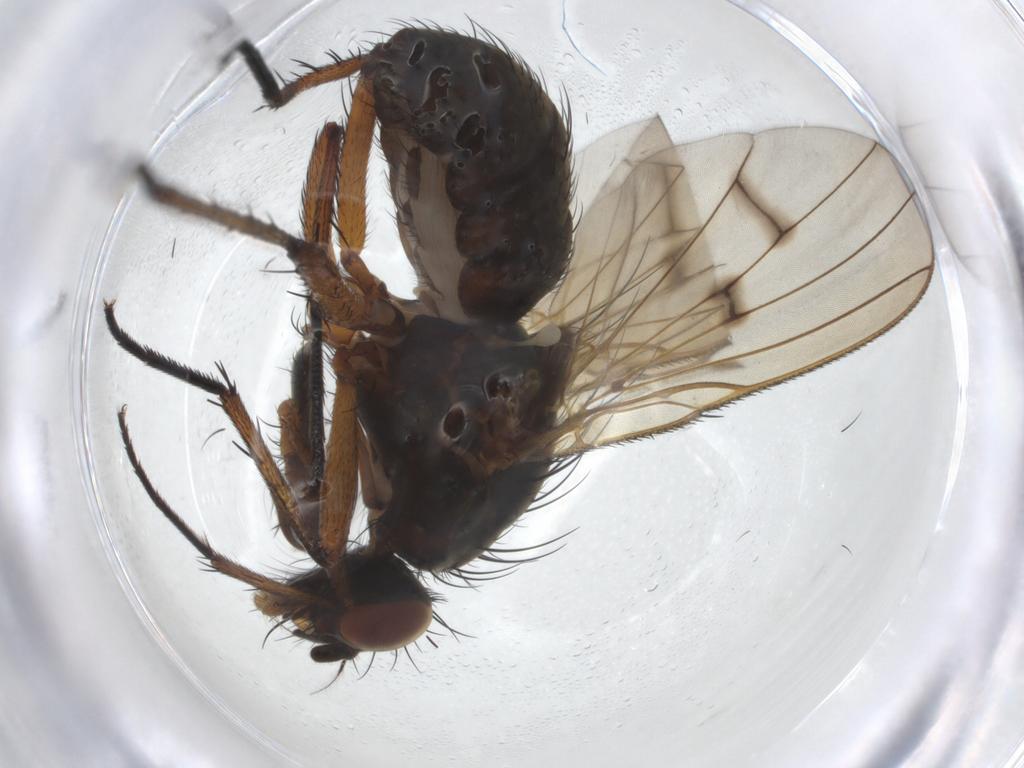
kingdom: Animalia
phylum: Arthropoda
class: Insecta
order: Diptera
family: Anthomyiidae
